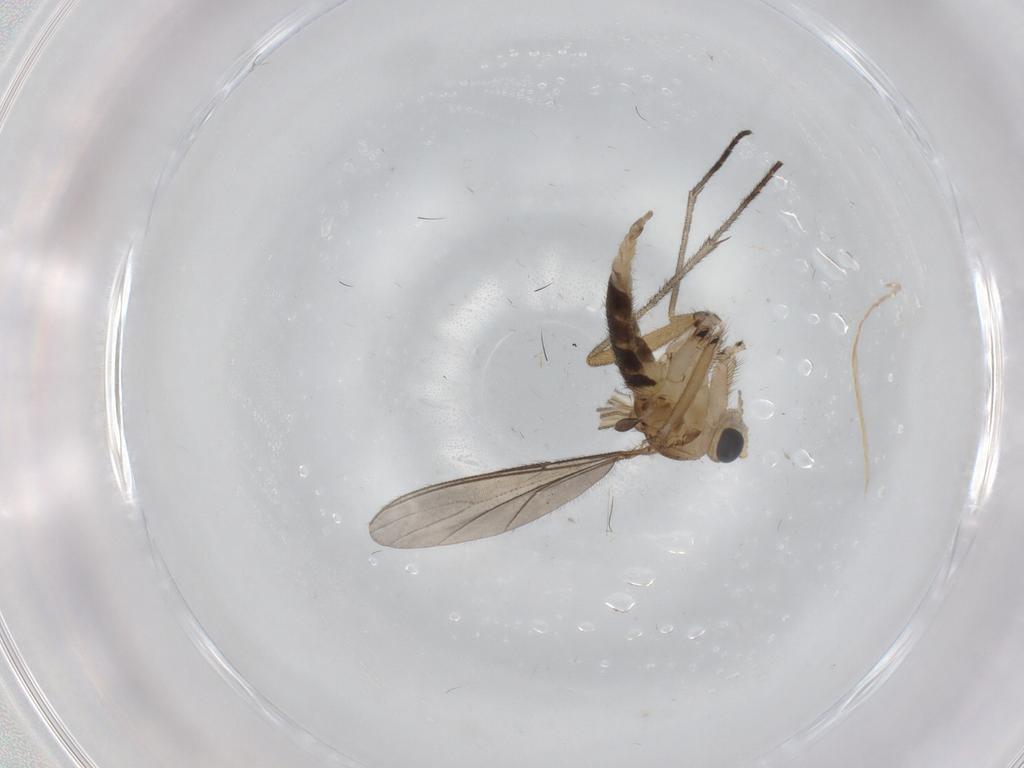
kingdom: Animalia
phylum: Arthropoda
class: Insecta
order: Diptera
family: Sciaridae
